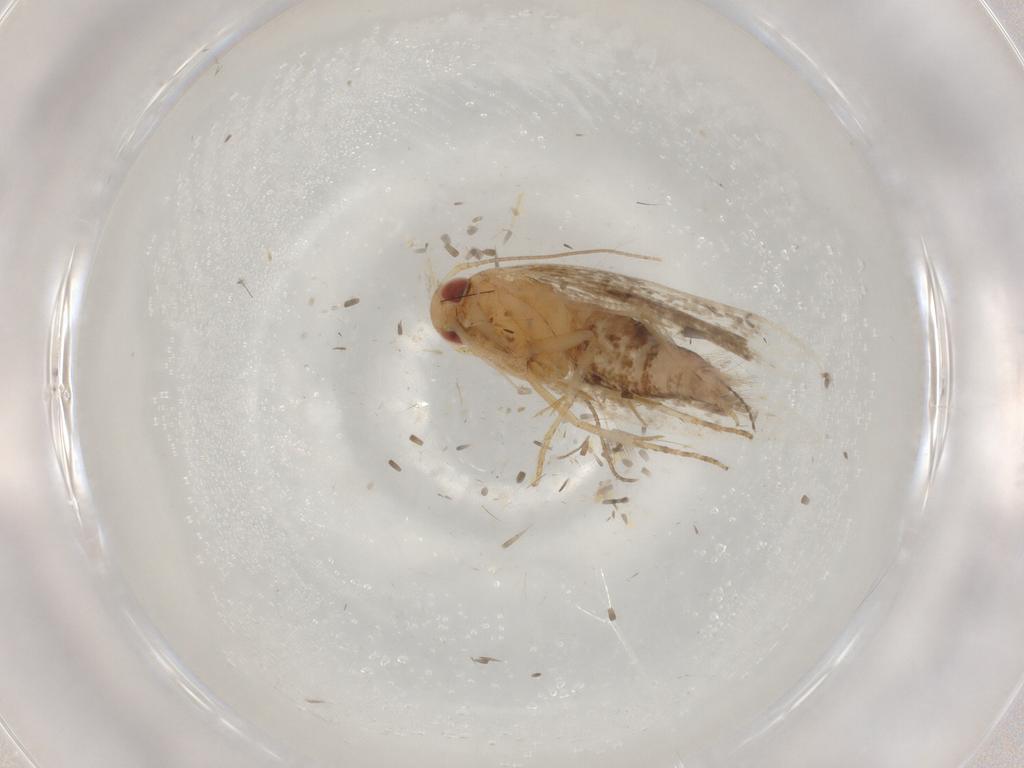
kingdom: Animalia
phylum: Arthropoda
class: Insecta
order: Lepidoptera
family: Gelechiidae
